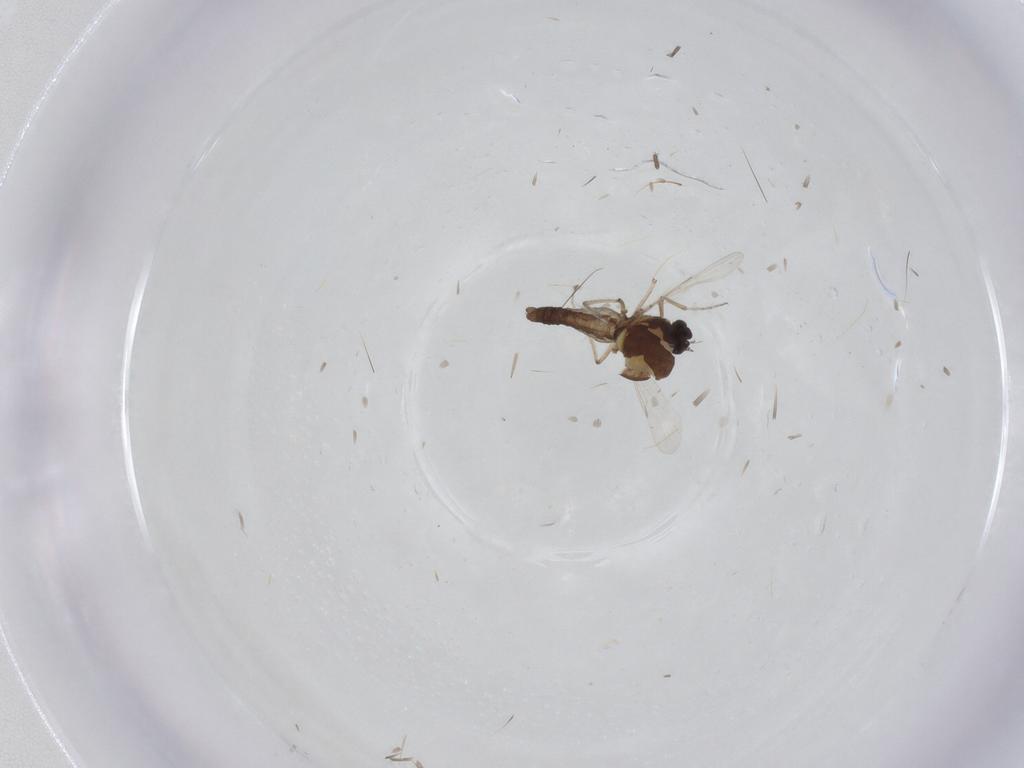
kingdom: Animalia
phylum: Arthropoda
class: Insecta
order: Diptera
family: Ceratopogonidae
